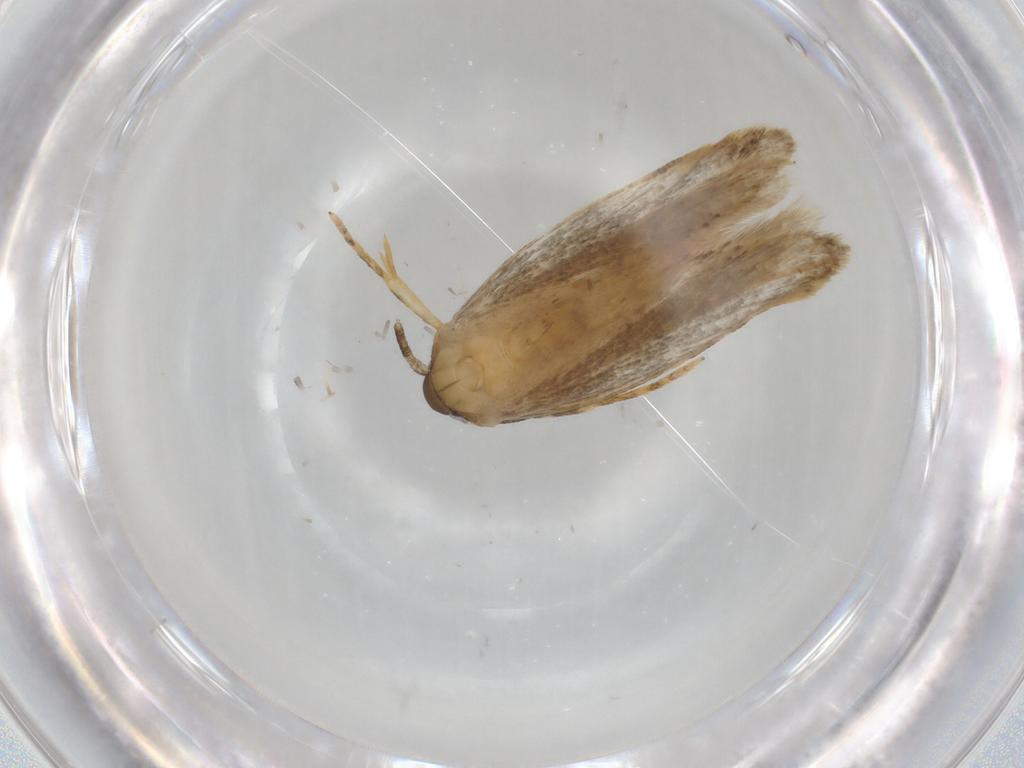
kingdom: Animalia
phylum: Arthropoda
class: Insecta
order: Lepidoptera
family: Autostichidae
